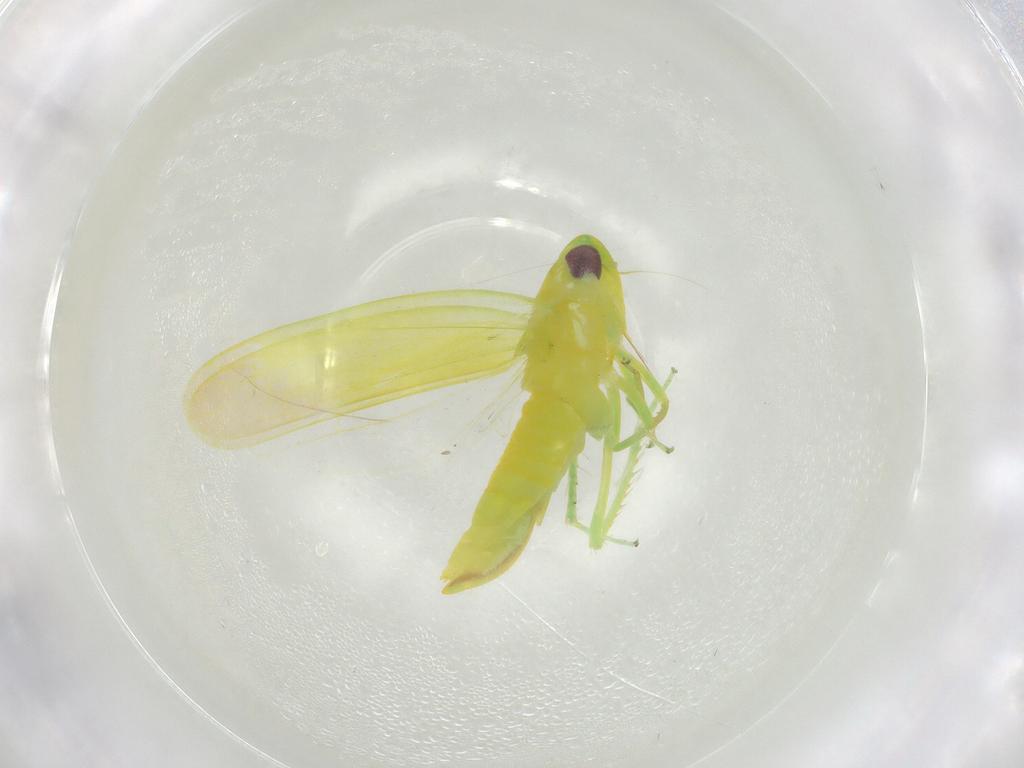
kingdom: Animalia
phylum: Arthropoda
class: Insecta
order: Hemiptera
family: Cicadellidae
